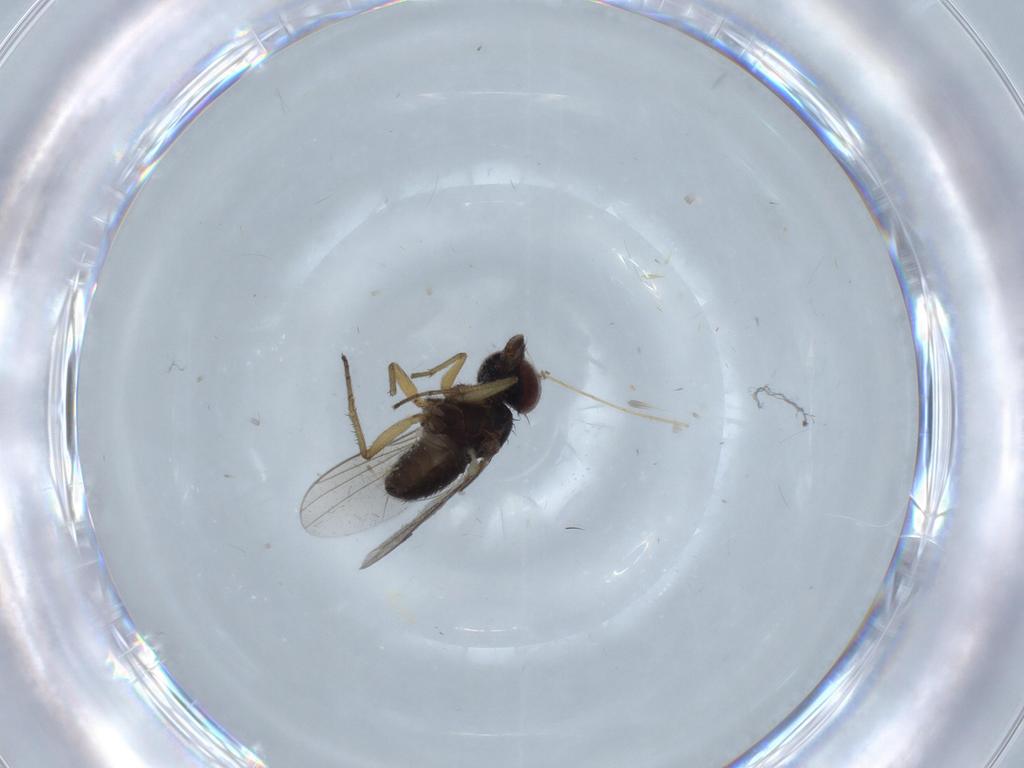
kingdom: Animalia
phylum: Arthropoda
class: Insecta
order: Diptera
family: Dolichopodidae
